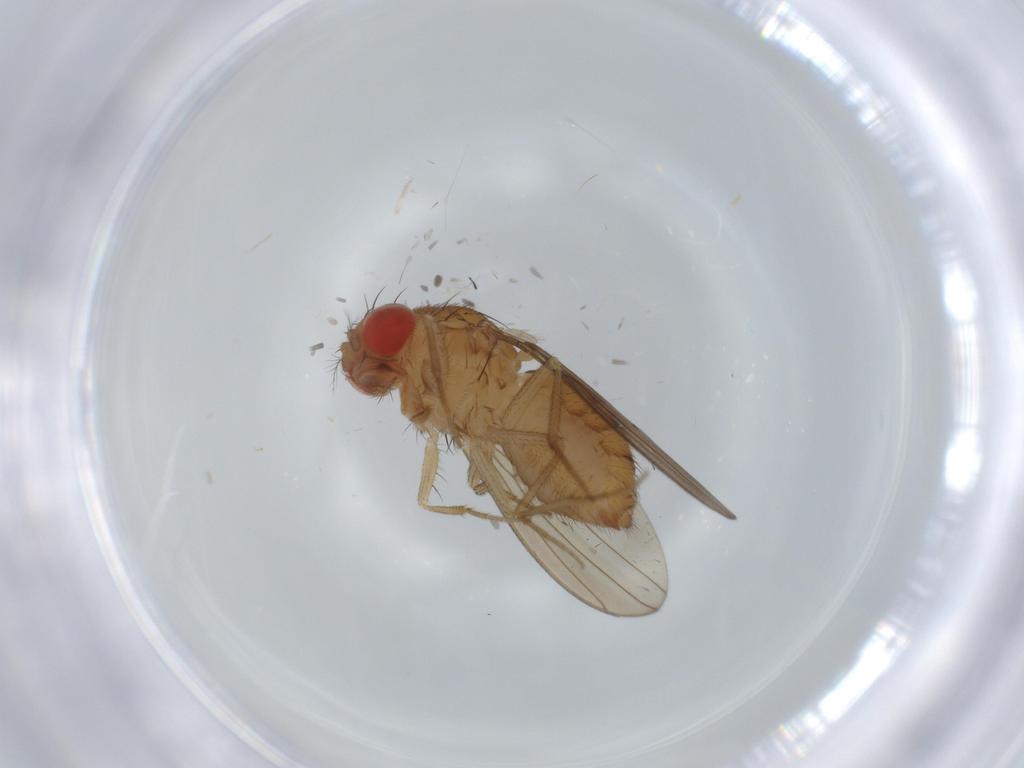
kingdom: Animalia
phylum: Arthropoda
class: Insecta
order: Diptera
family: Drosophilidae
